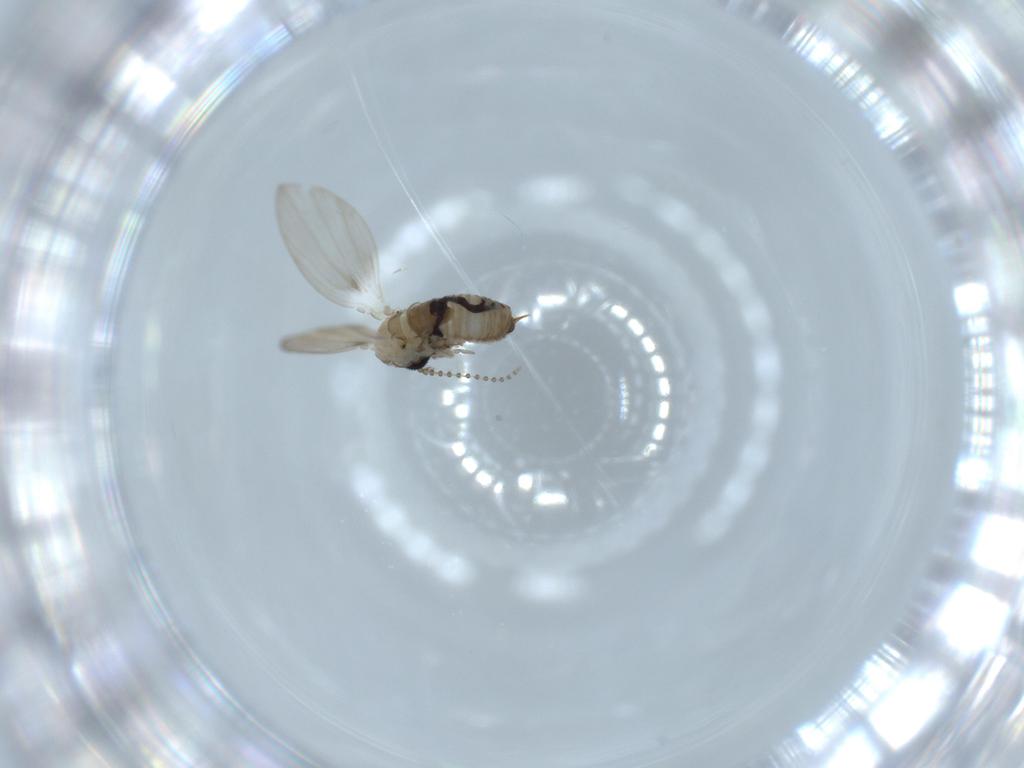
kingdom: Animalia
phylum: Arthropoda
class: Insecta
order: Diptera
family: Psychodidae
